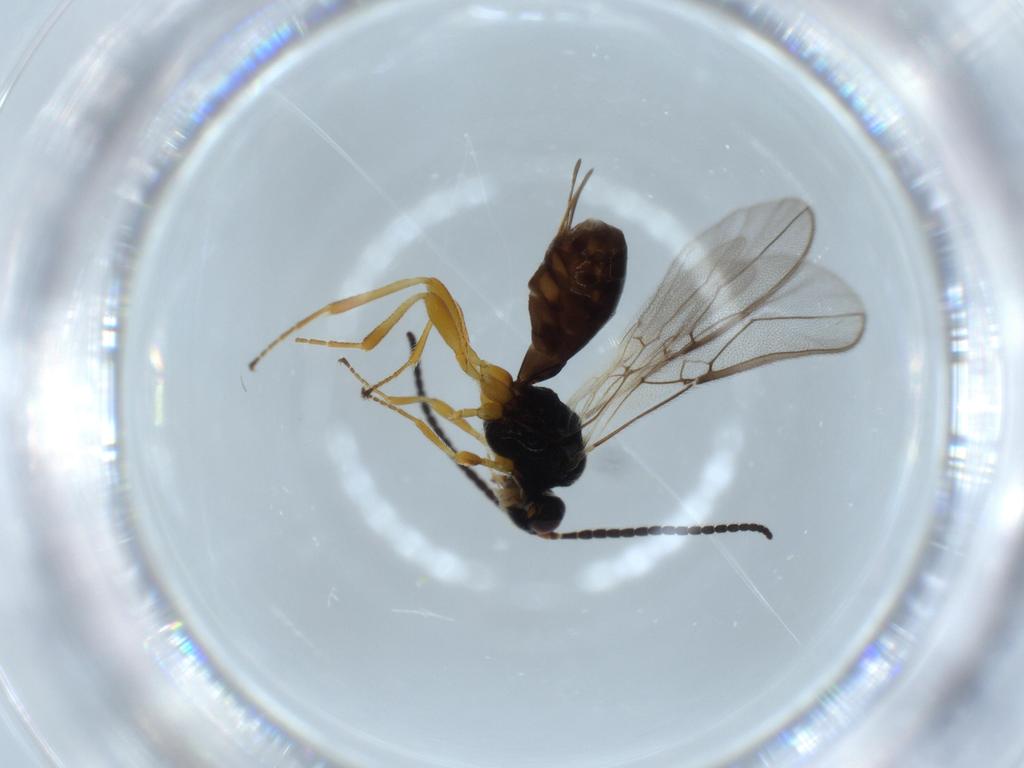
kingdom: Animalia
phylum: Arthropoda
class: Insecta
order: Hymenoptera
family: Braconidae
